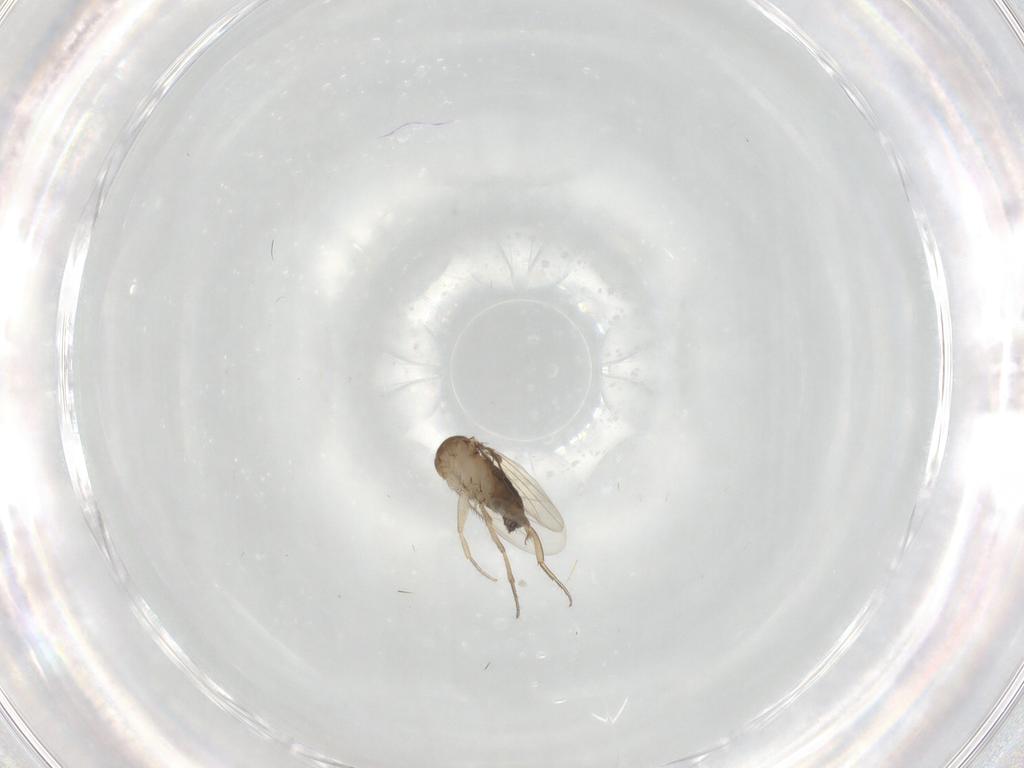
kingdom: Animalia
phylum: Arthropoda
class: Insecta
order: Diptera
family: Phoridae
